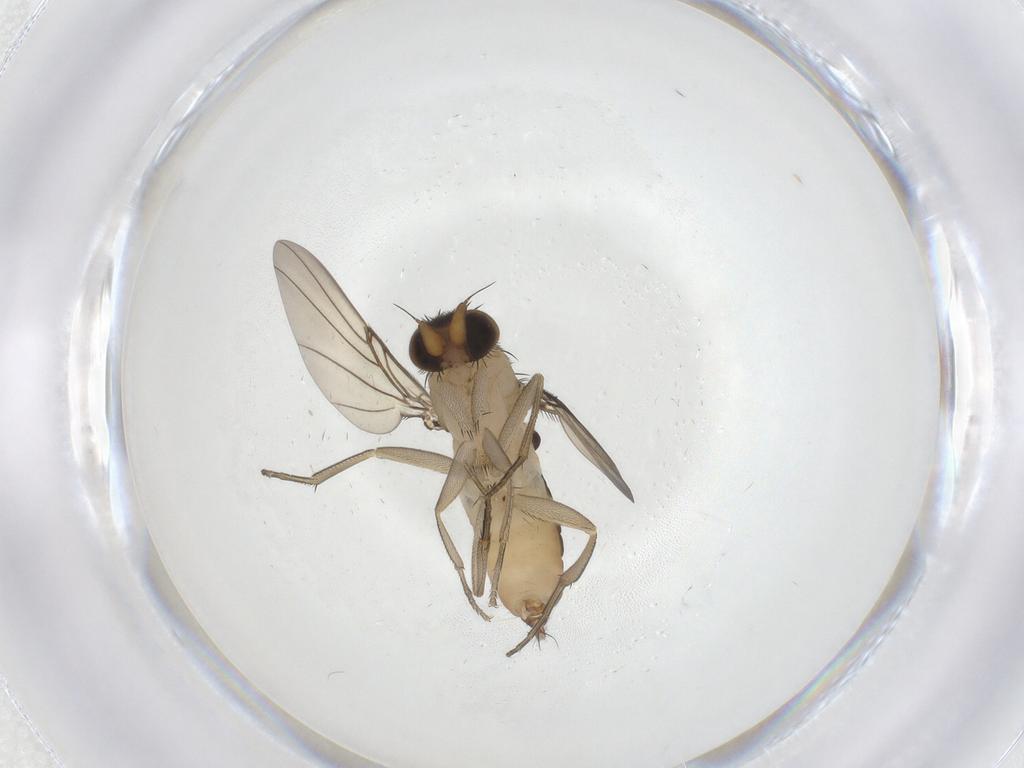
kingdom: Animalia
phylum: Arthropoda
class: Insecta
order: Diptera
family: Phoridae
